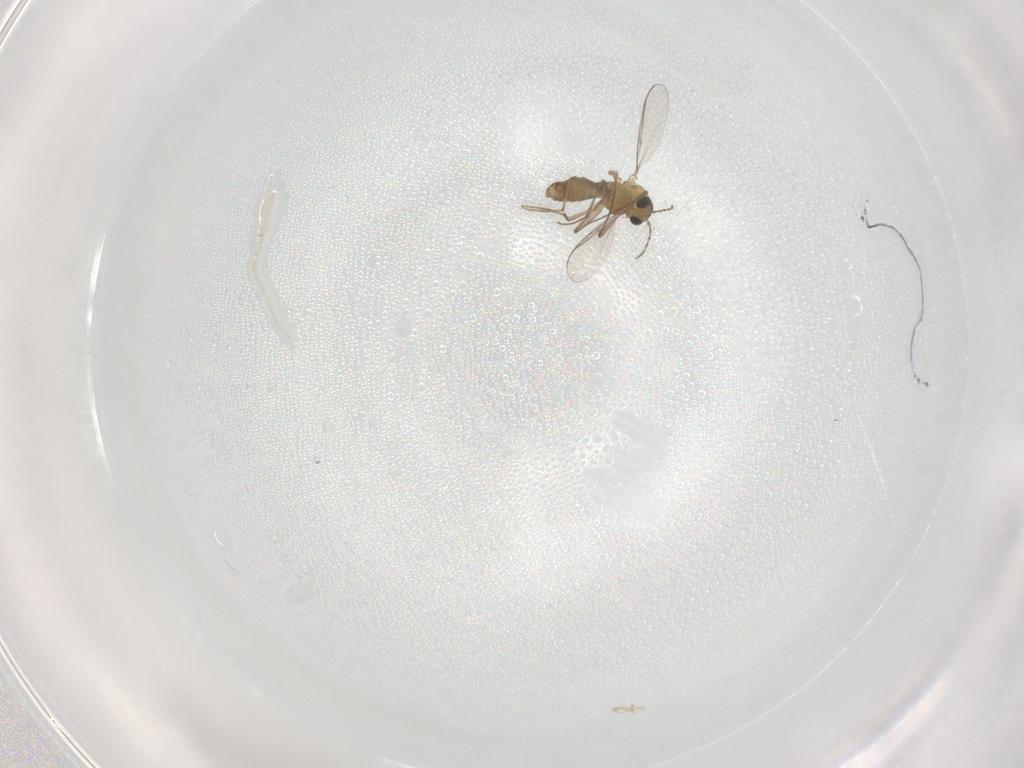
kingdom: Animalia
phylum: Arthropoda
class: Insecta
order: Diptera
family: Chironomidae
